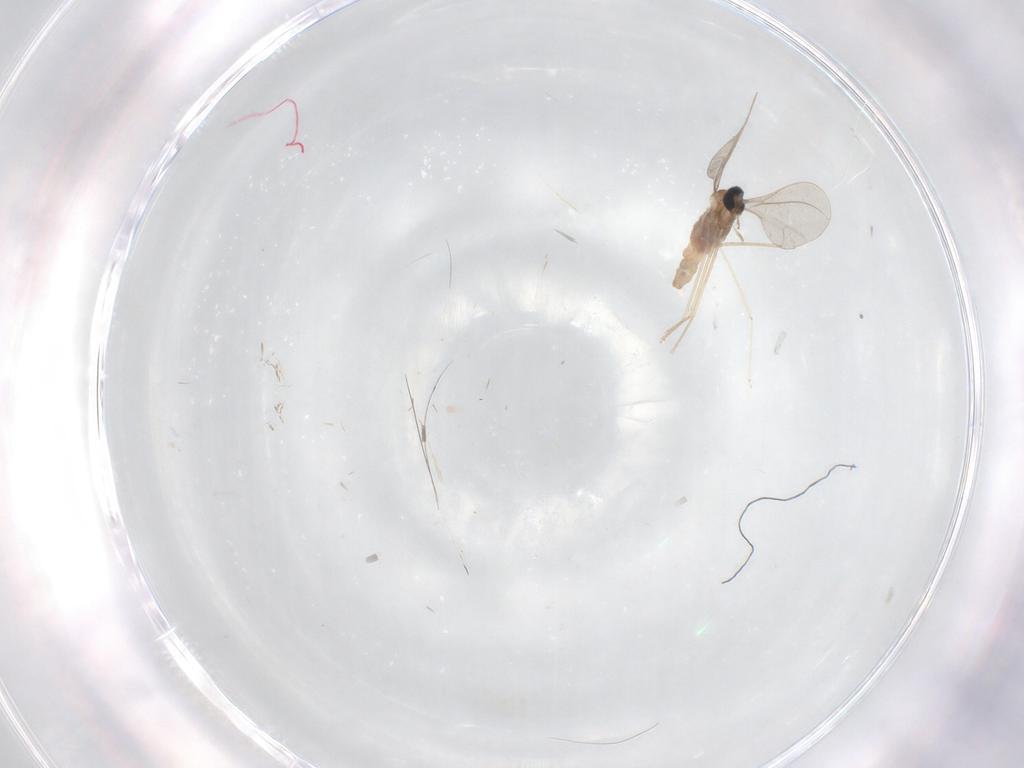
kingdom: Animalia
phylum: Arthropoda
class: Insecta
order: Diptera
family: Cecidomyiidae
